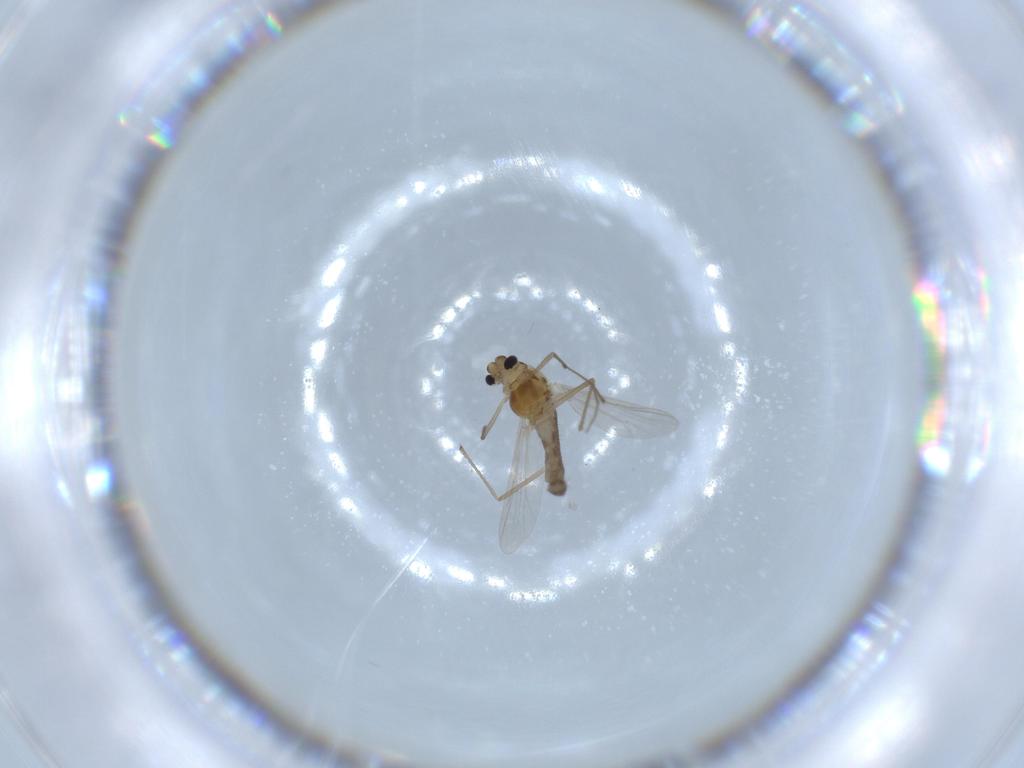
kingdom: Animalia
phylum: Arthropoda
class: Insecta
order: Diptera
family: Chironomidae
